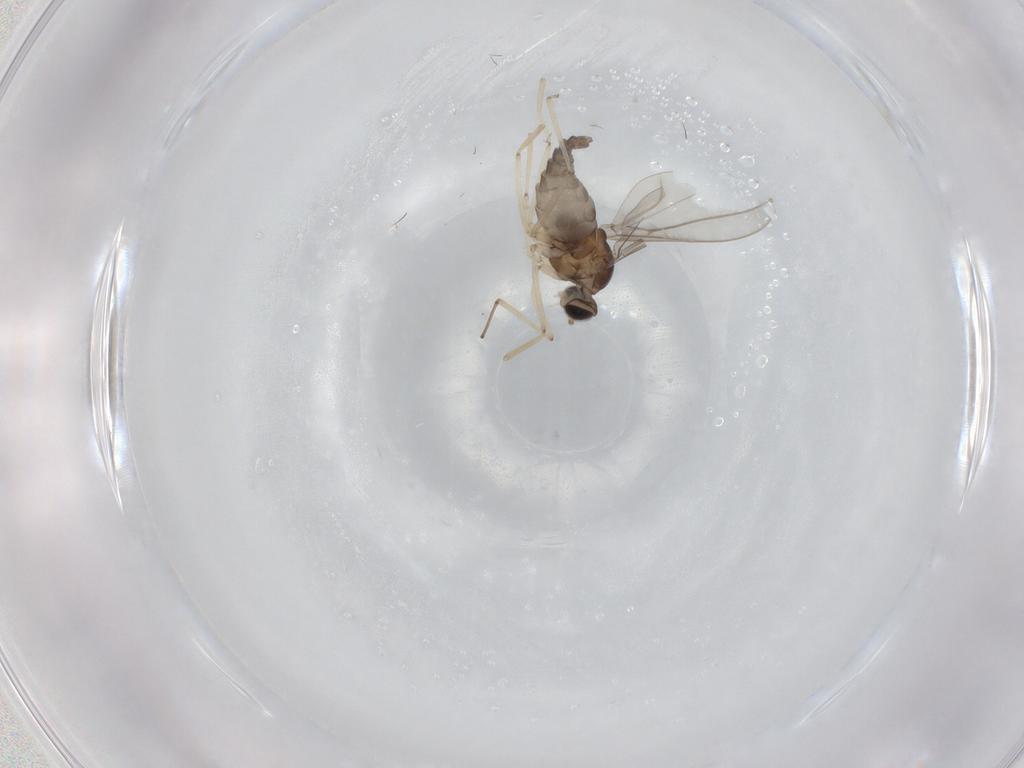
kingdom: Animalia
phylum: Arthropoda
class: Insecta
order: Diptera
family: Cecidomyiidae
